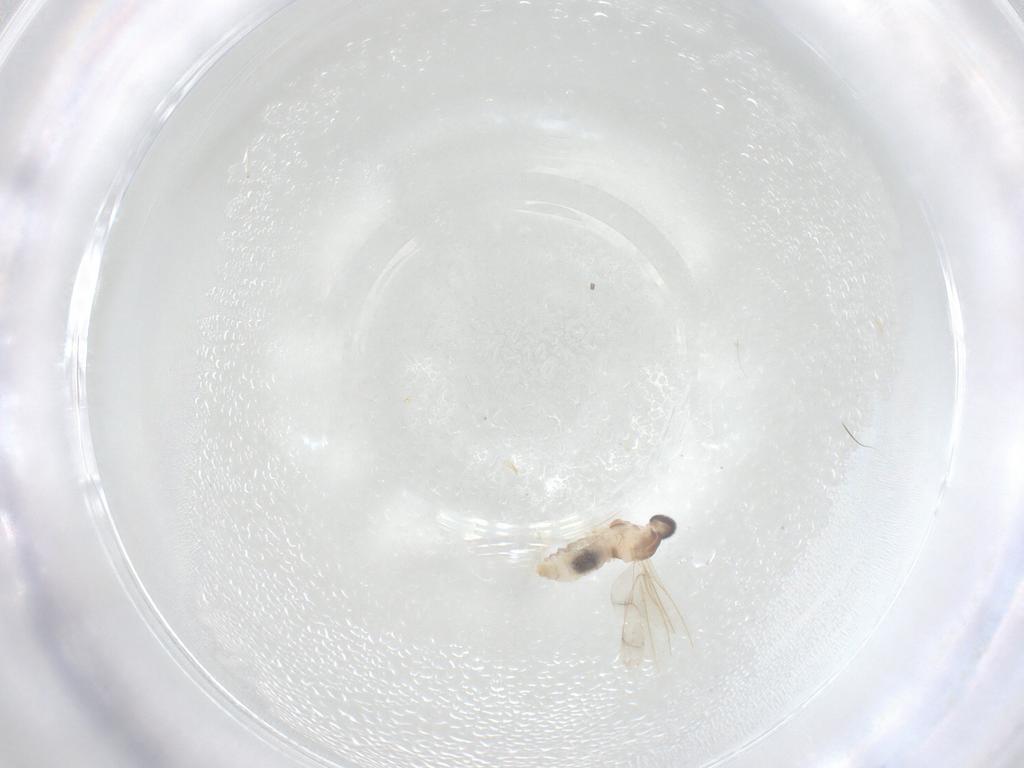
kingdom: Animalia
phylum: Arthropoda
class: Insecta
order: Diptera
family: Cecidomyiidae
